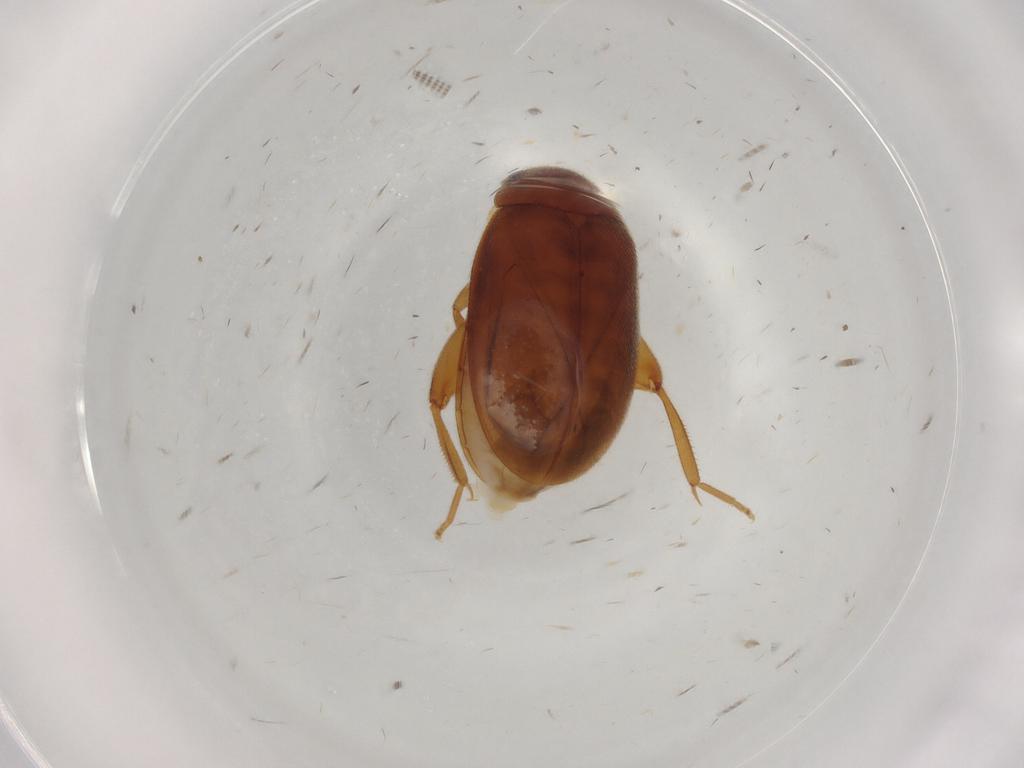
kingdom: Animalia
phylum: Arthropoda
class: Insecta
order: Coleoptera
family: Scirtidae
